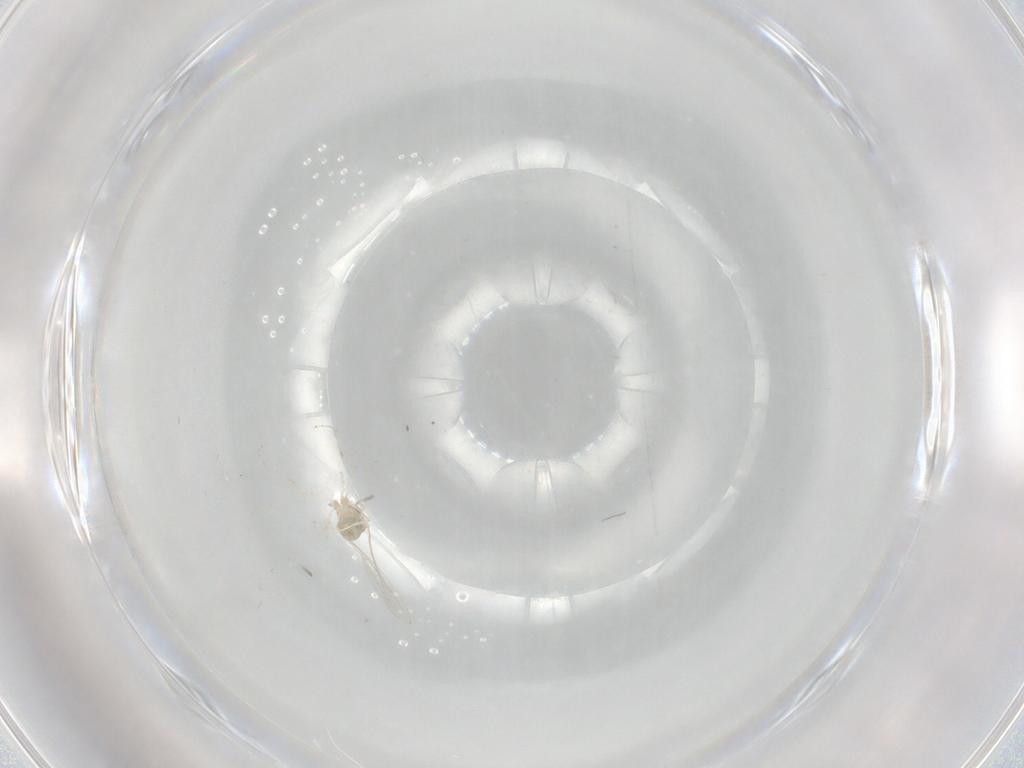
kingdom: Animalia
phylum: Arthropoda
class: Insecta
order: Diptera
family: Cecidomyiidae
